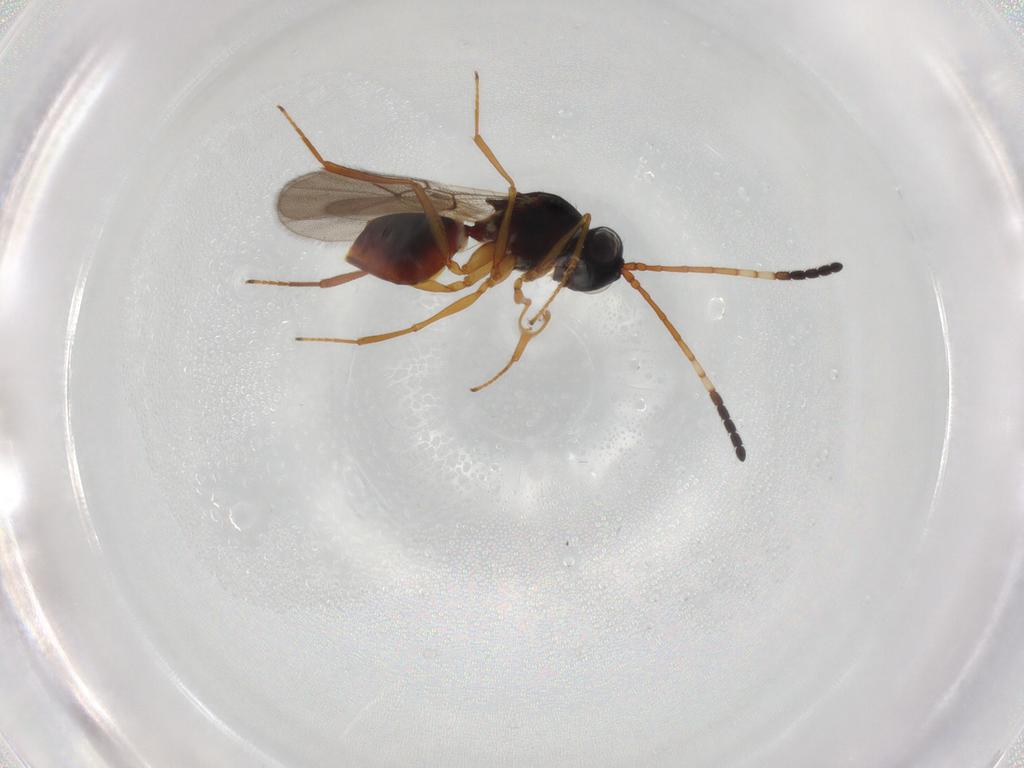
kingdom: Animalia
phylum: Arthropoda
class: Insecta
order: Hymenoptera
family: Figitidae
